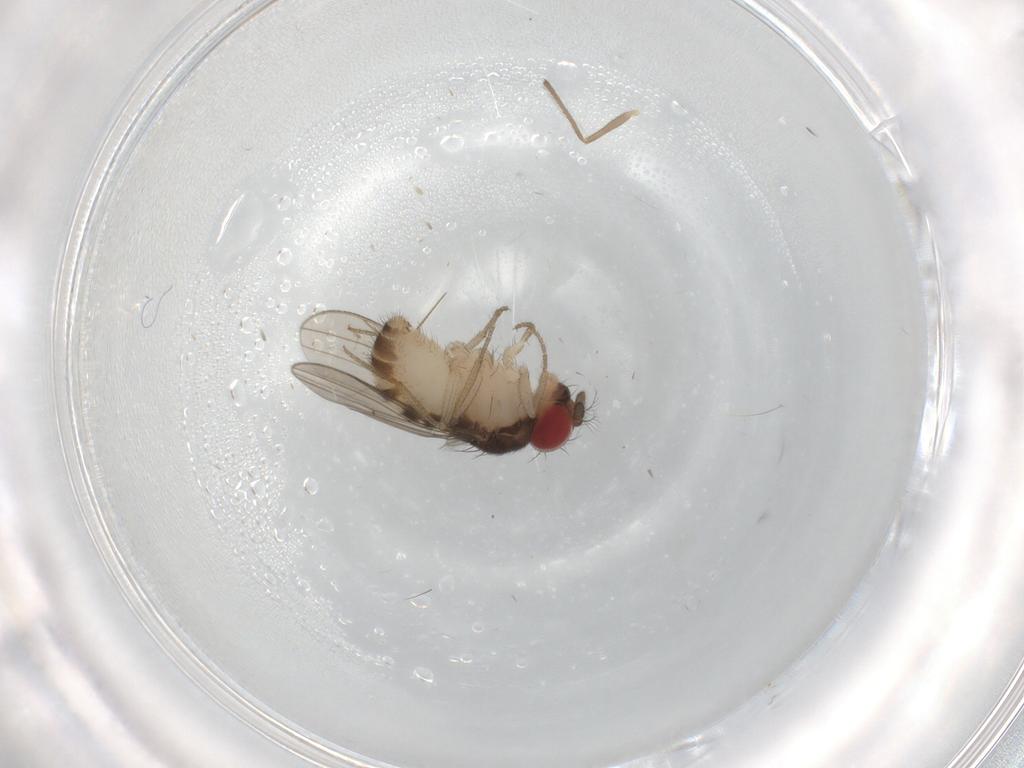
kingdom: Animalia
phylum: Arthropoda
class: Insecta
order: Diptera
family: Drosophilidae
